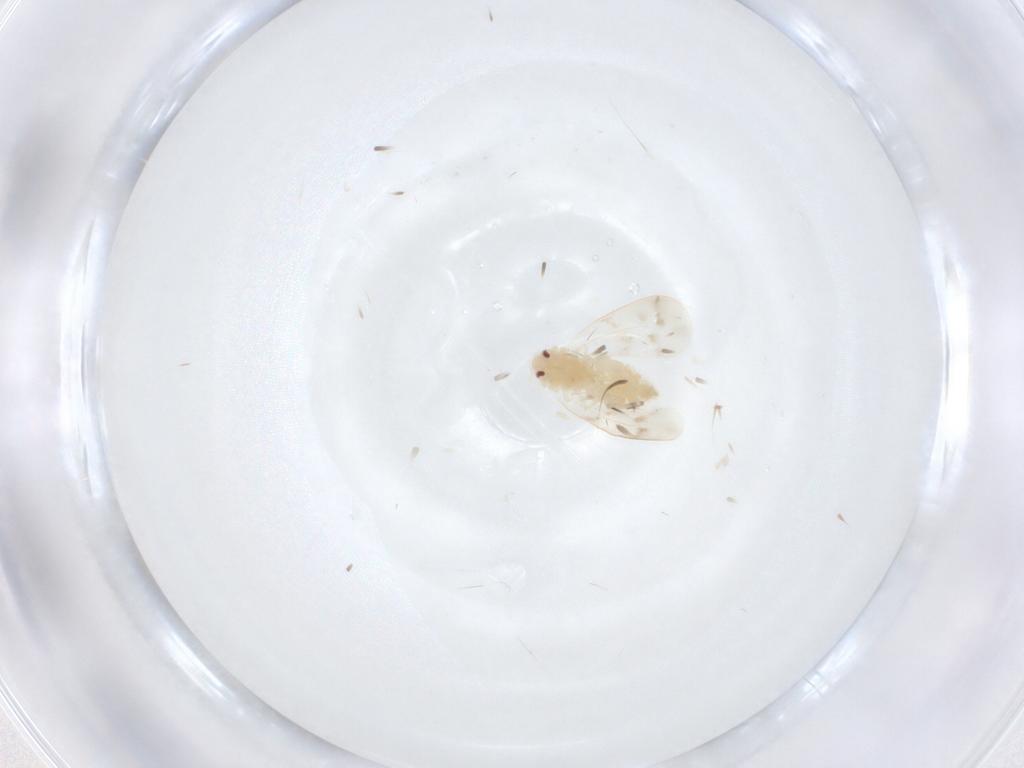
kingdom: Animalia
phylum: Arthropoda
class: Insecta
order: Hemiptera
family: Aleyrodidae
